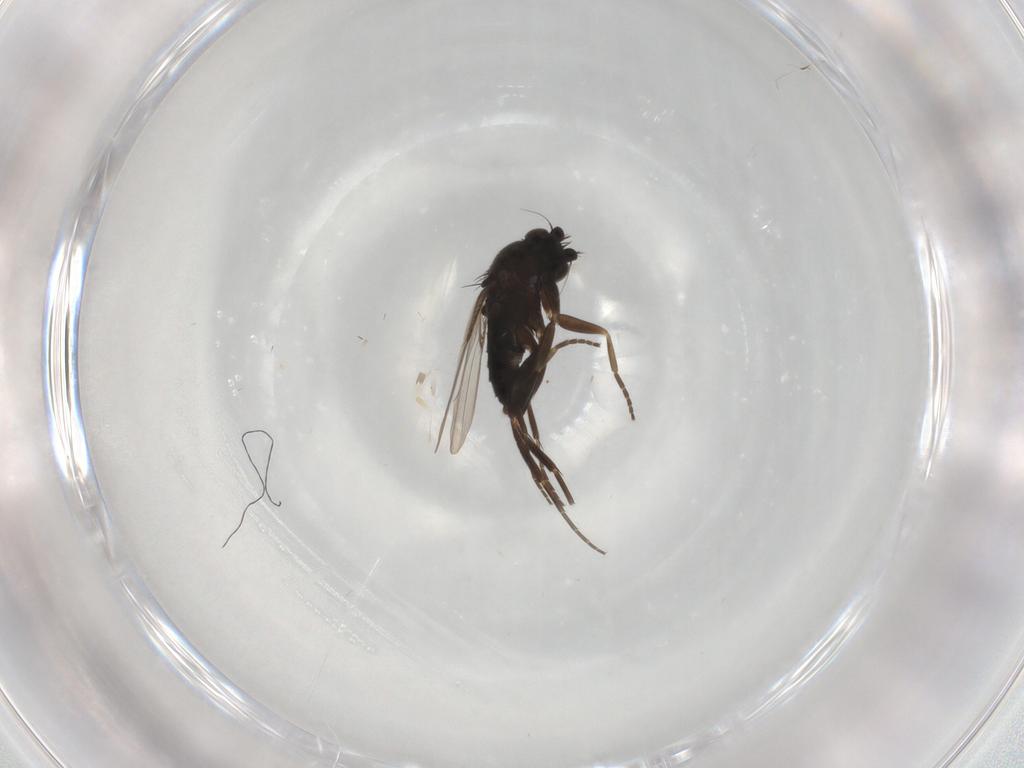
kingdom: Animalia
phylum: Arthropoda
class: Insecta
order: Diptera
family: Phoridae
